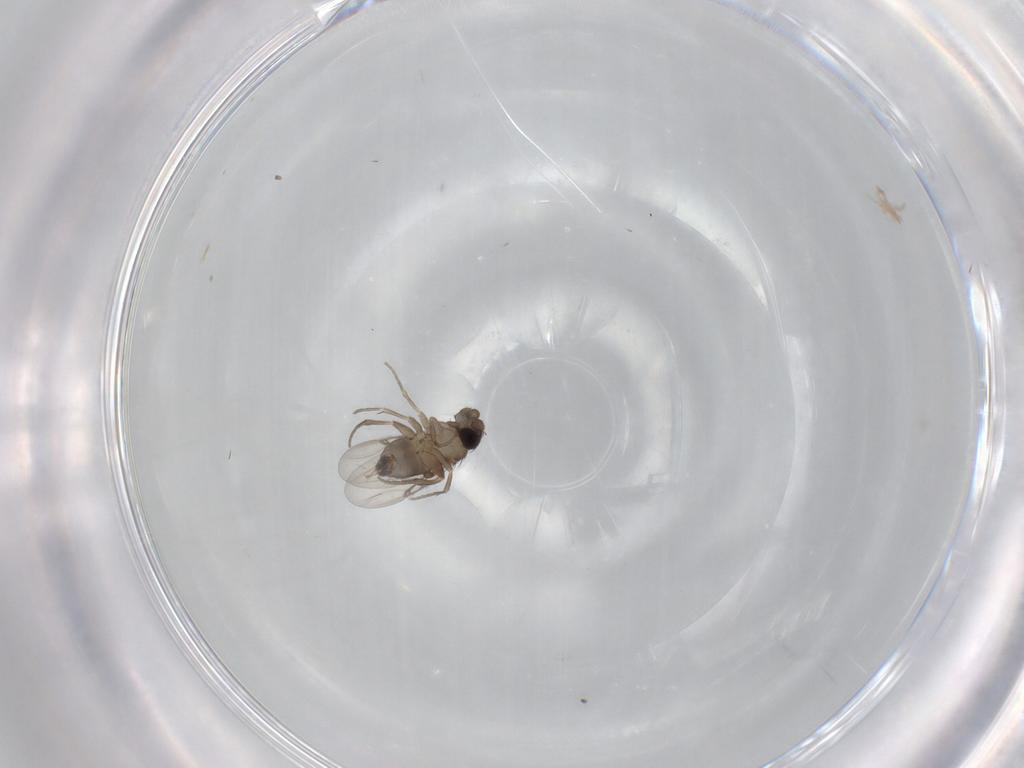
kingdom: Animalia
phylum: Arthropoda
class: Insecta
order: Diptera
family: Phoridae
